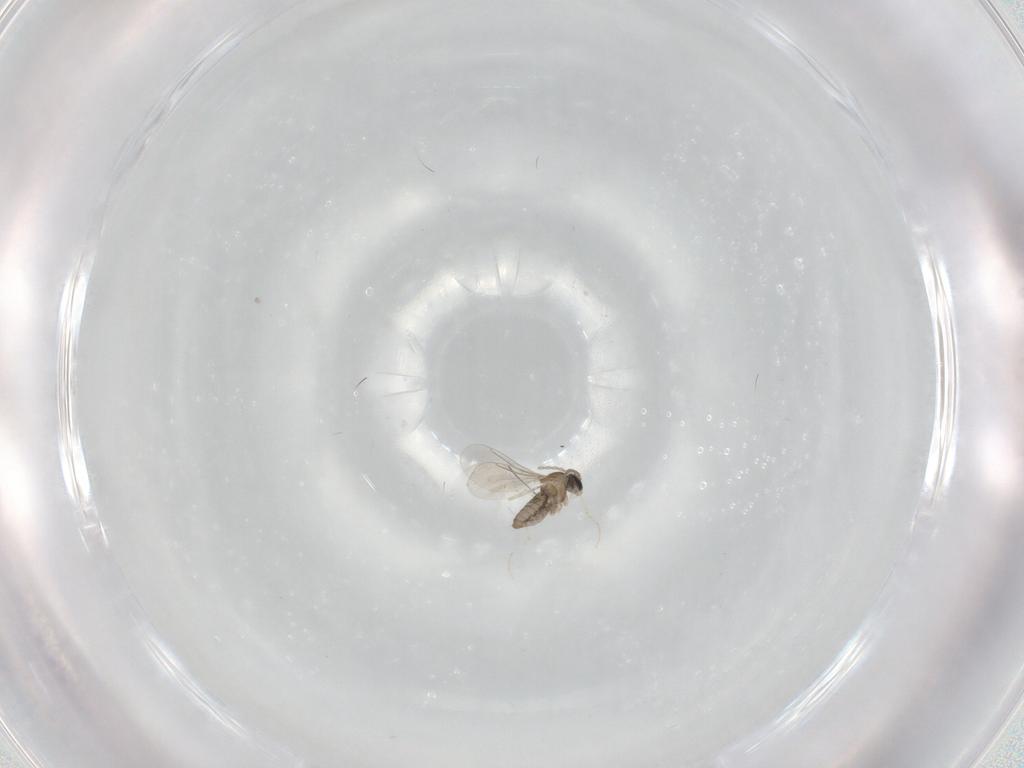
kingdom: Animalia
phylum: Arthropoda
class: Insecta
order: Diptera
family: Cecidomyiidae
